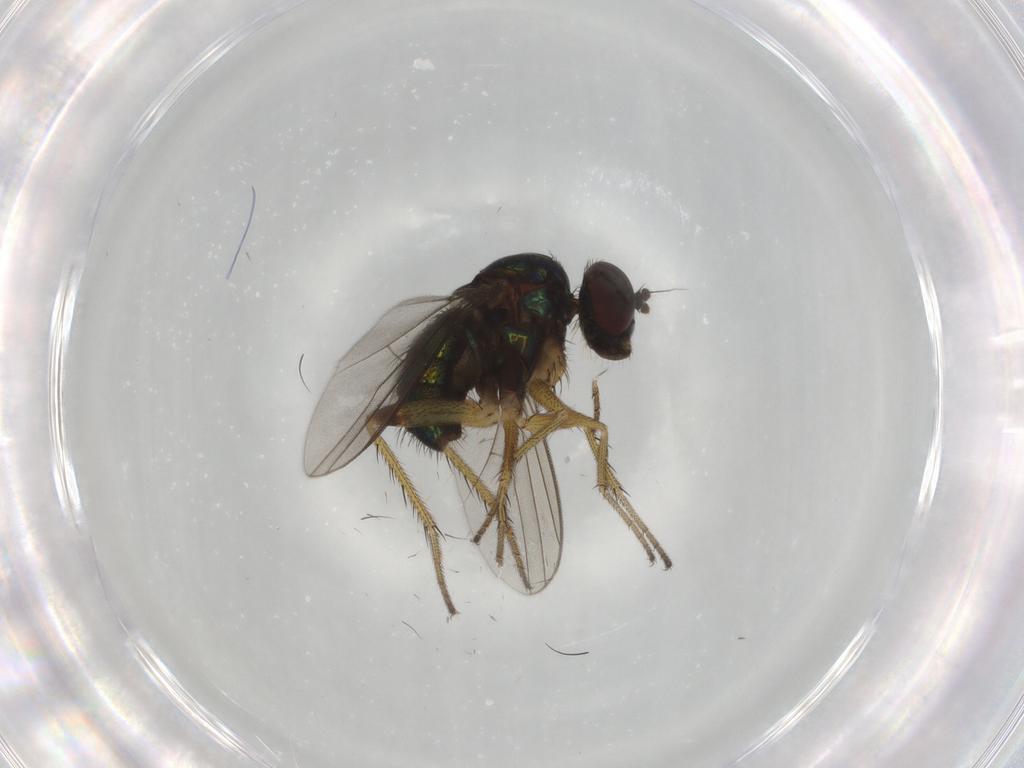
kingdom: Animalia
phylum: Arthropoda
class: Insecta
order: Diptera
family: Dolichopodidae
